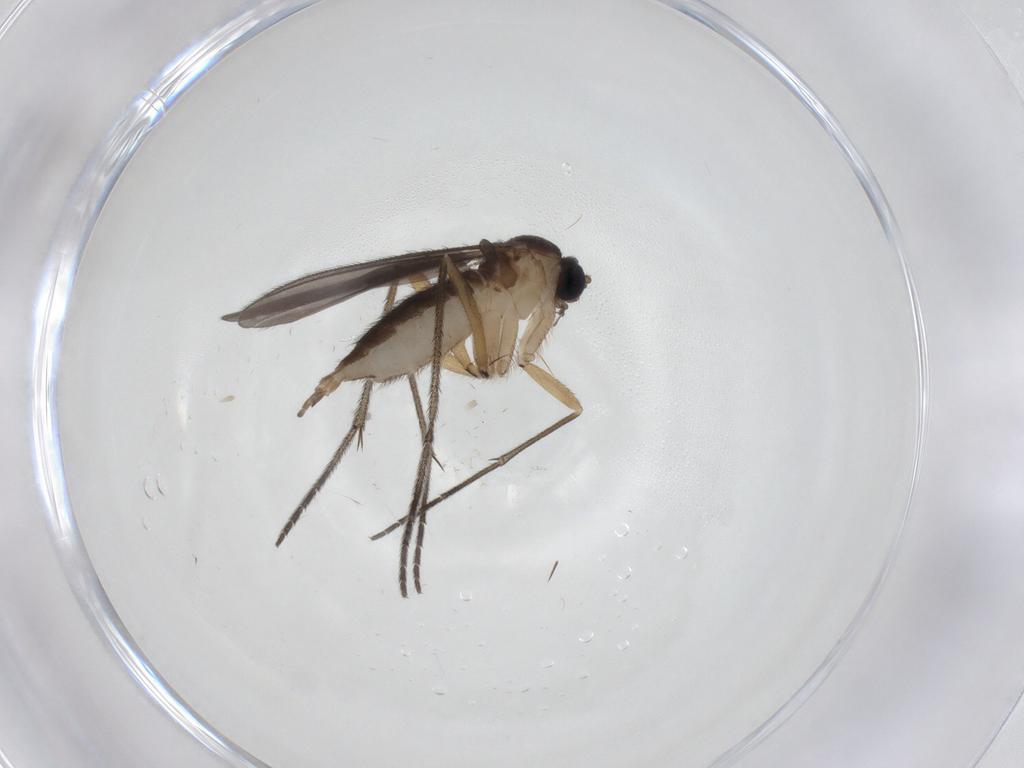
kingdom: Animalia
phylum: Arthropoda
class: Insecta
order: Diptera
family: Sciaridae
